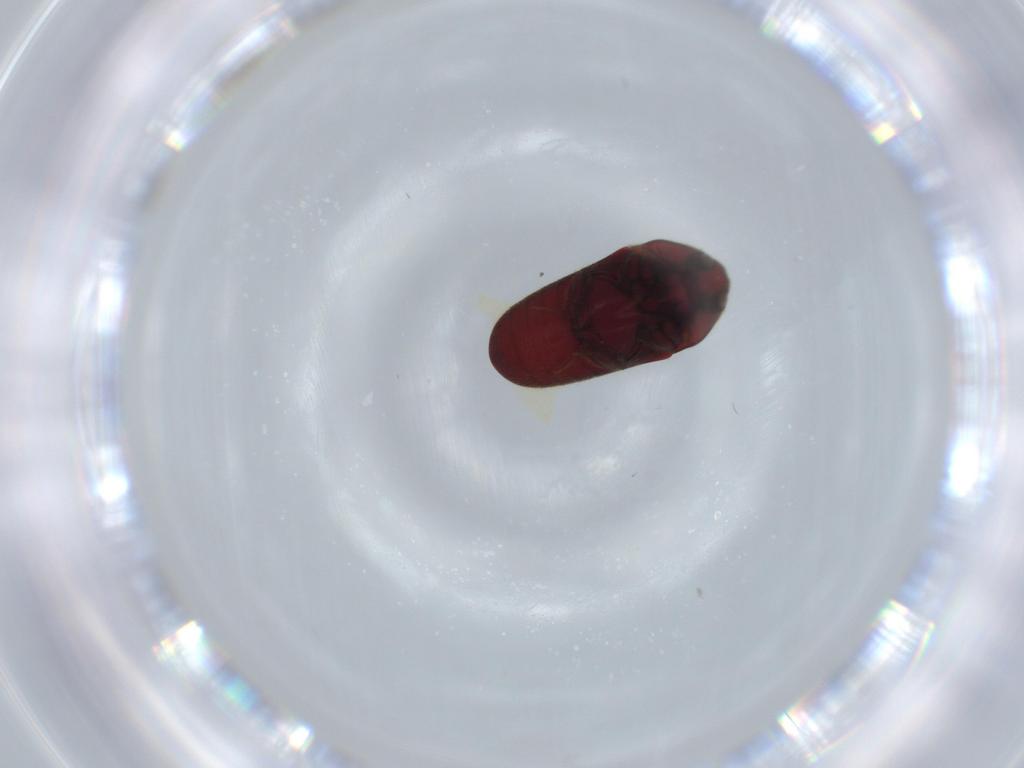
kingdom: Animalia
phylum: Arthropoda
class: Insecta
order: Coleoptera
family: Throscidae
